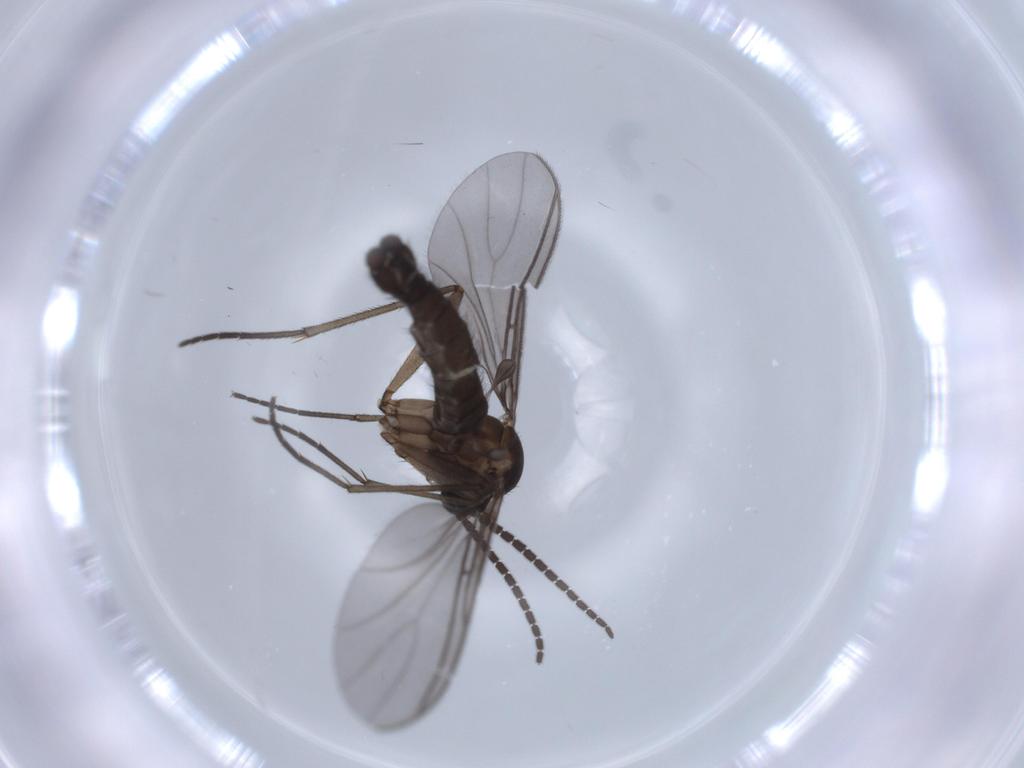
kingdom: Animalia
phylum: Arthropoda
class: Insecta
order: Diptera
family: Sciaridae
